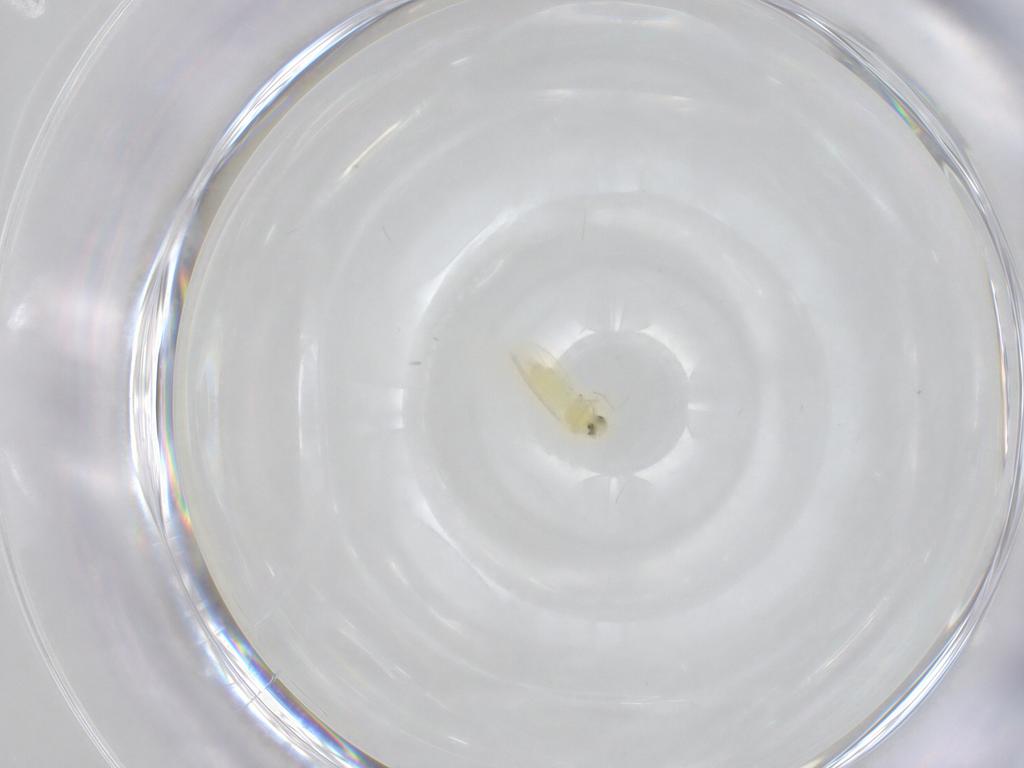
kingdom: Animalia
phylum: Arthropoda
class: Insecta
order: Hemiptera
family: Aleyrodidae
